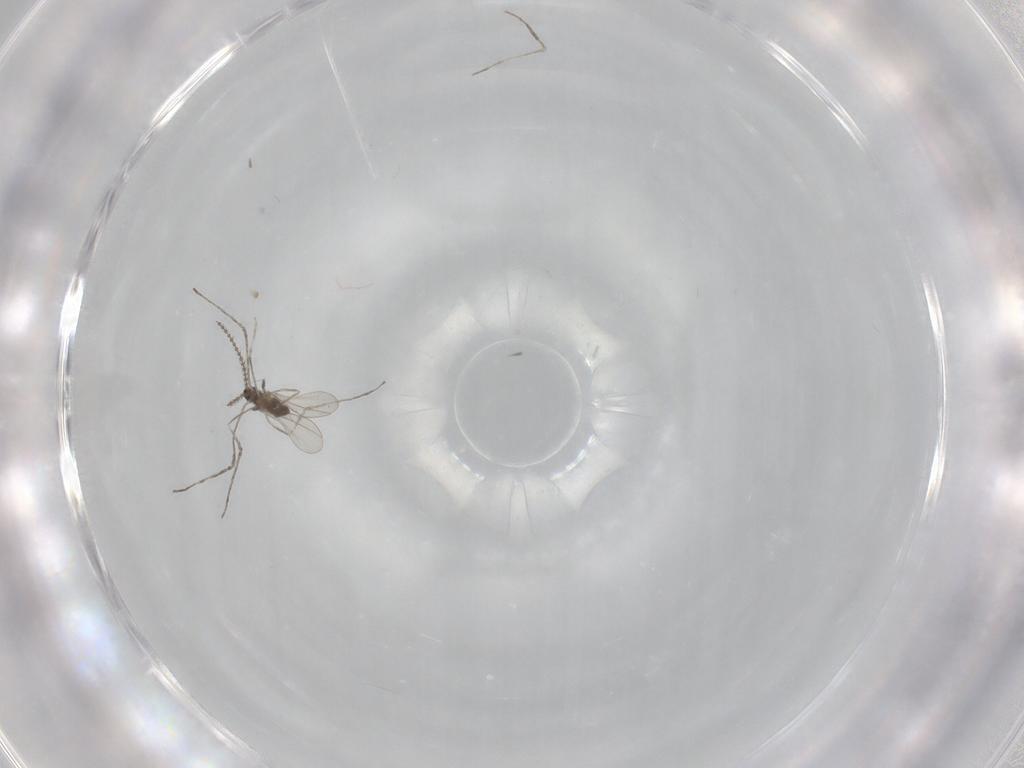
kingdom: Animalia
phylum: Arthropoda
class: Insecta
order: Diptera
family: Cecidomyiidae
